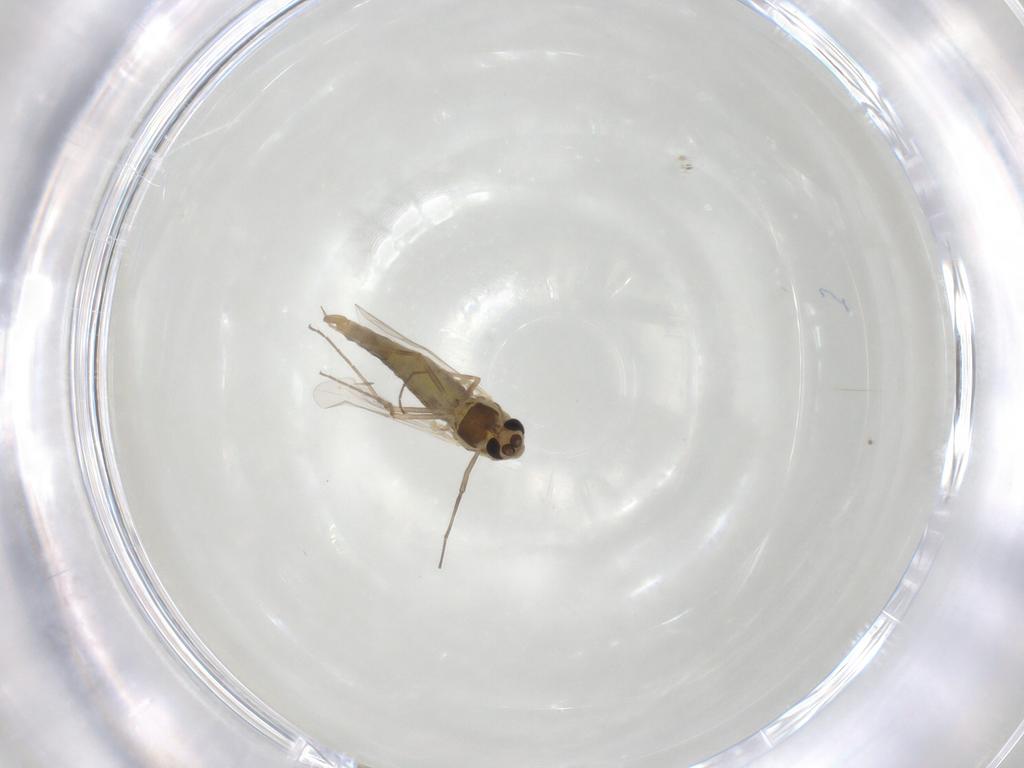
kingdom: Animalia
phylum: Arthropoda
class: Insecta
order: Diptera
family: Chironomidae
